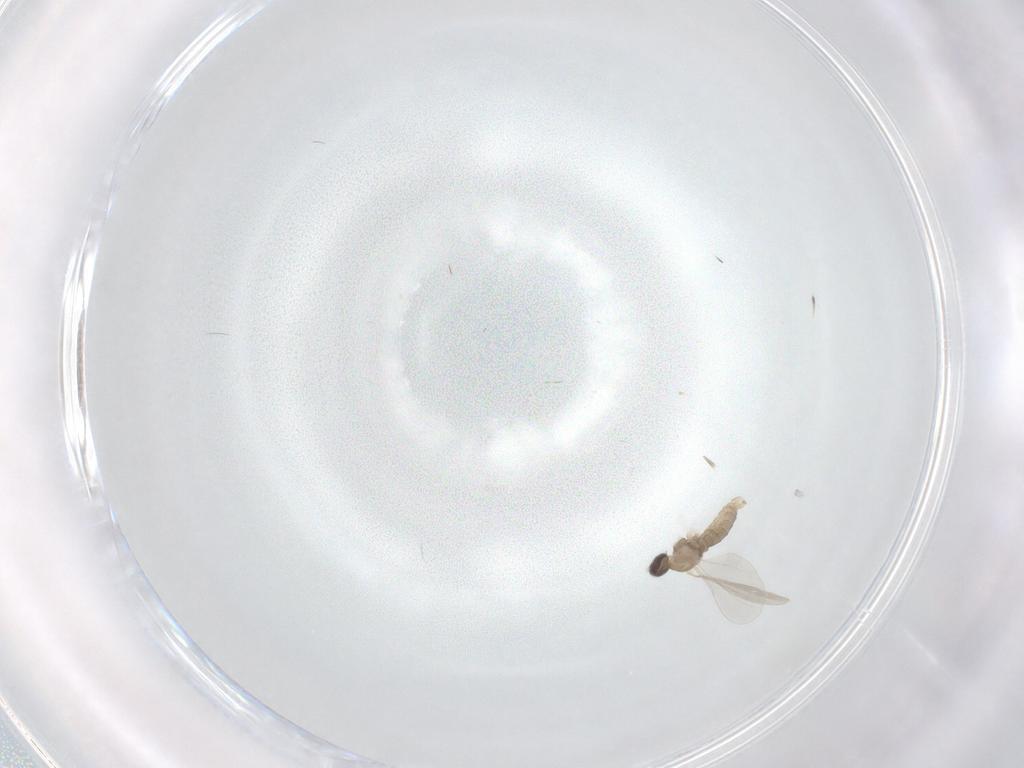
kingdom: Animalia
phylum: Arthropoda
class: Insecta
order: Diptera
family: Cecidomyiidae
